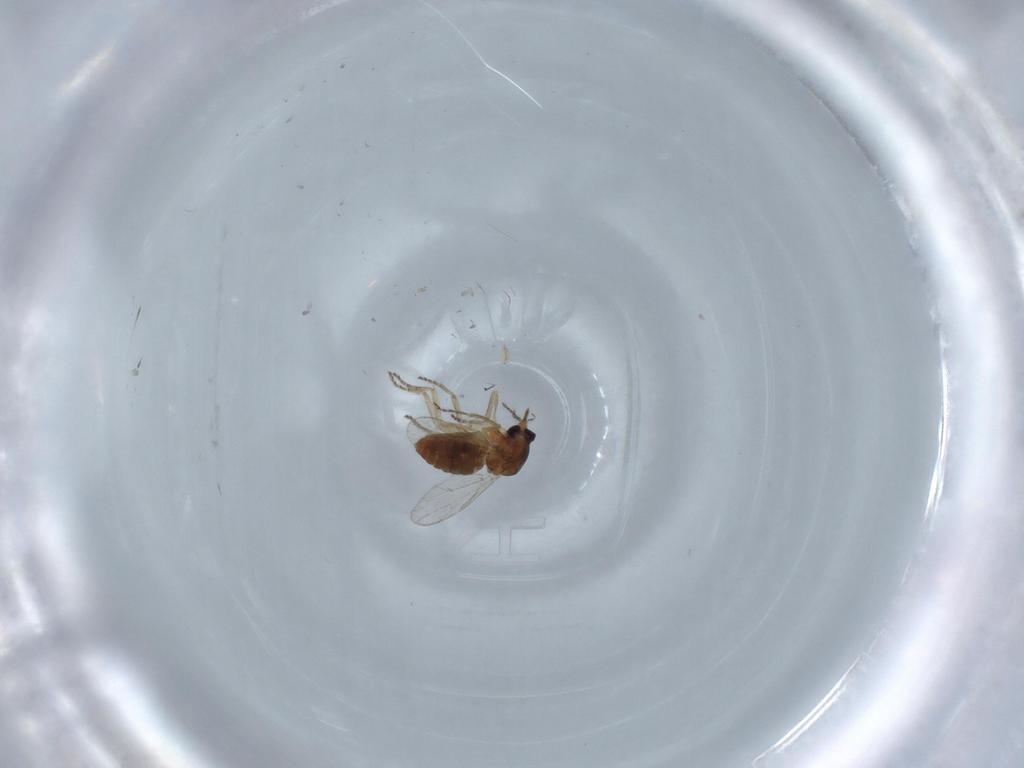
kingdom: Animalia
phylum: Arthropoda
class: Insecta
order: Diptera
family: Ceratopogonidae
